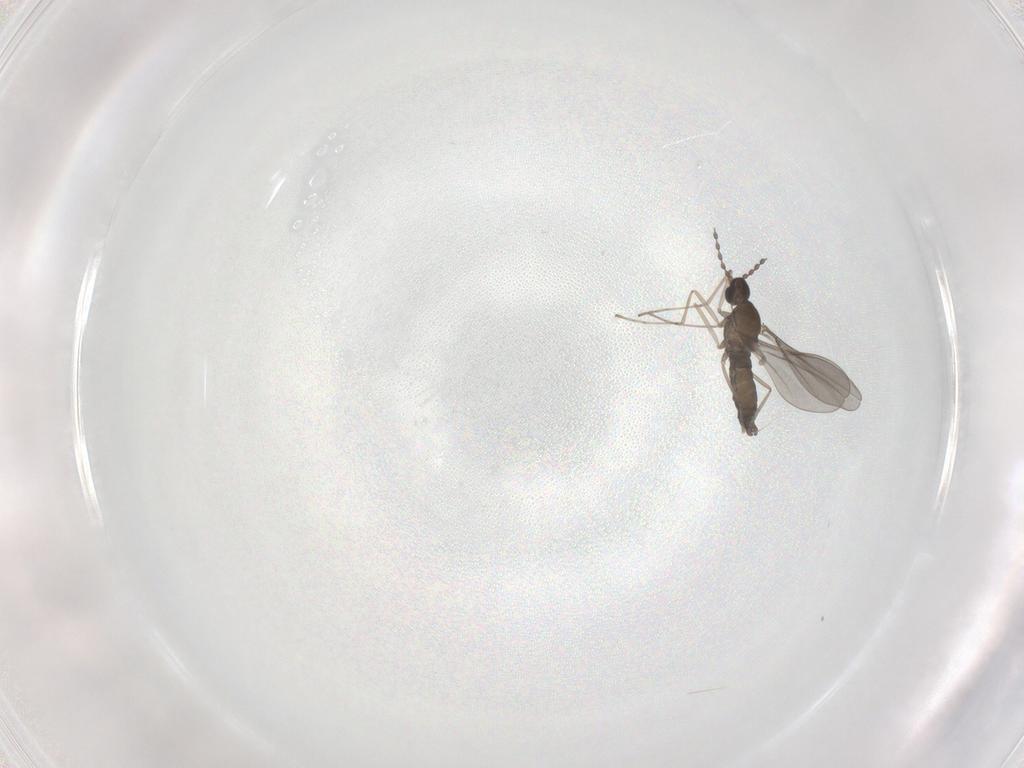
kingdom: Animalia
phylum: Arthropoda
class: Insecta
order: Diptera
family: Cecidomyiidae
